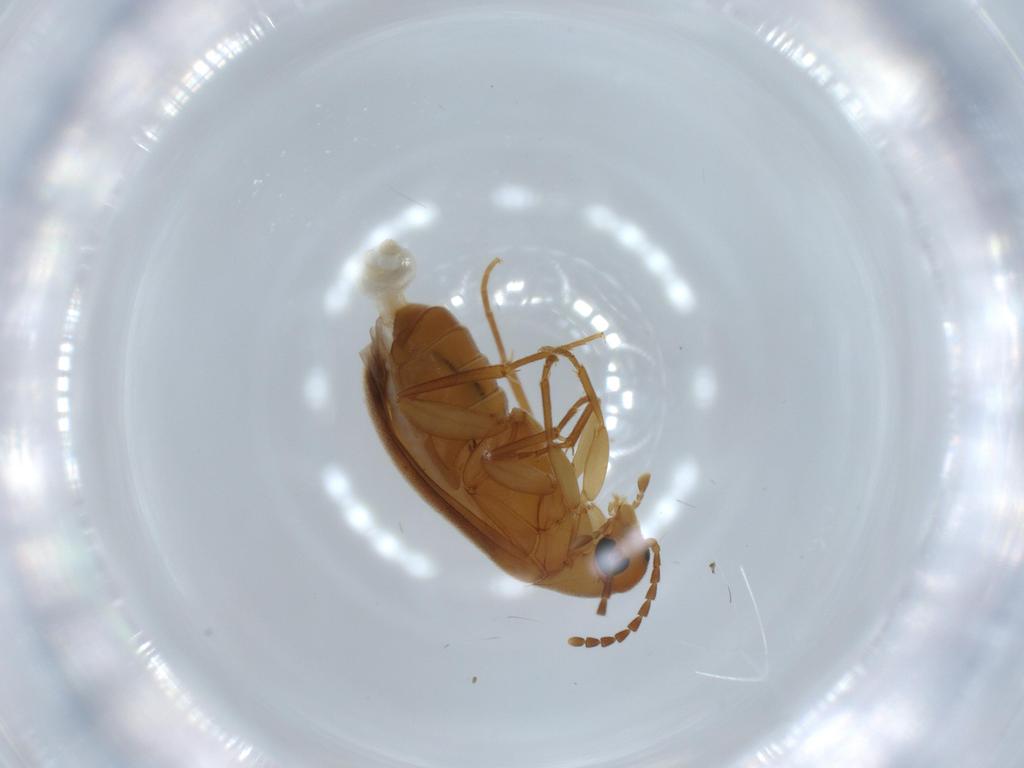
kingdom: Animalia
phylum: Arthropoda
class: Insecta
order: Coleoptera
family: Scraptiidae
